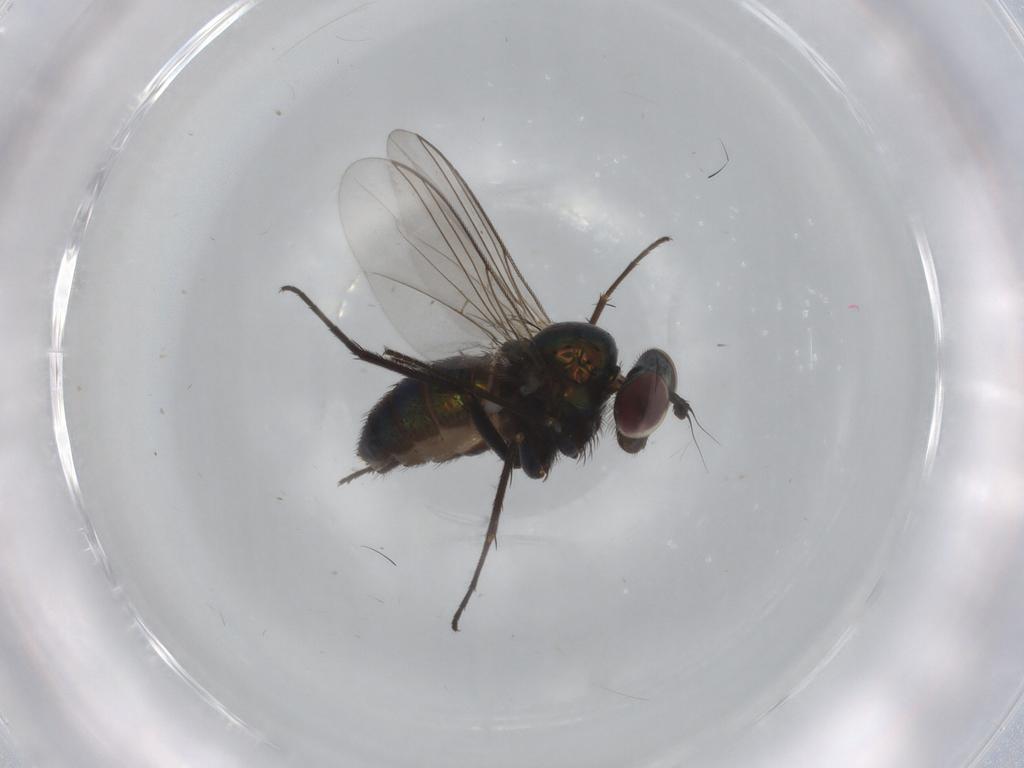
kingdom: Animalia
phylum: Arthropoda
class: Insecta
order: Diptera
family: Dolichopodidae
